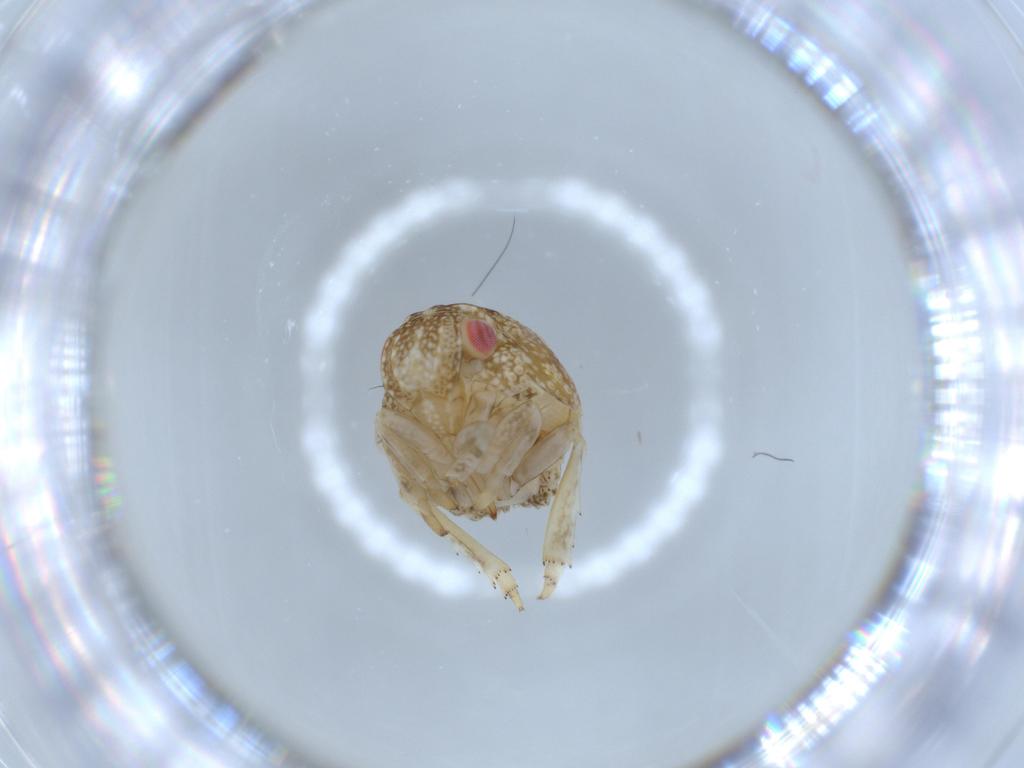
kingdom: Animalia
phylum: Arthropoda
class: Insecta
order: Hemiptera
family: Acanaloniidae
